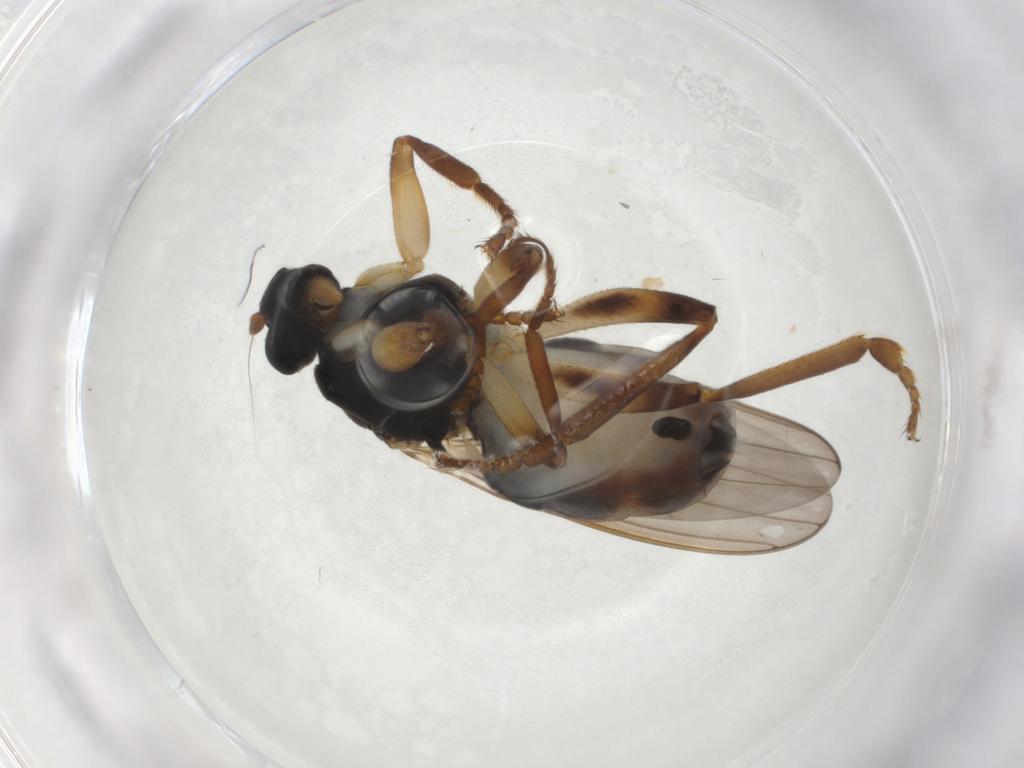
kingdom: Animalia
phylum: Arthropoda
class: Insecta
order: Diptera
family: Sphaeroceridae
